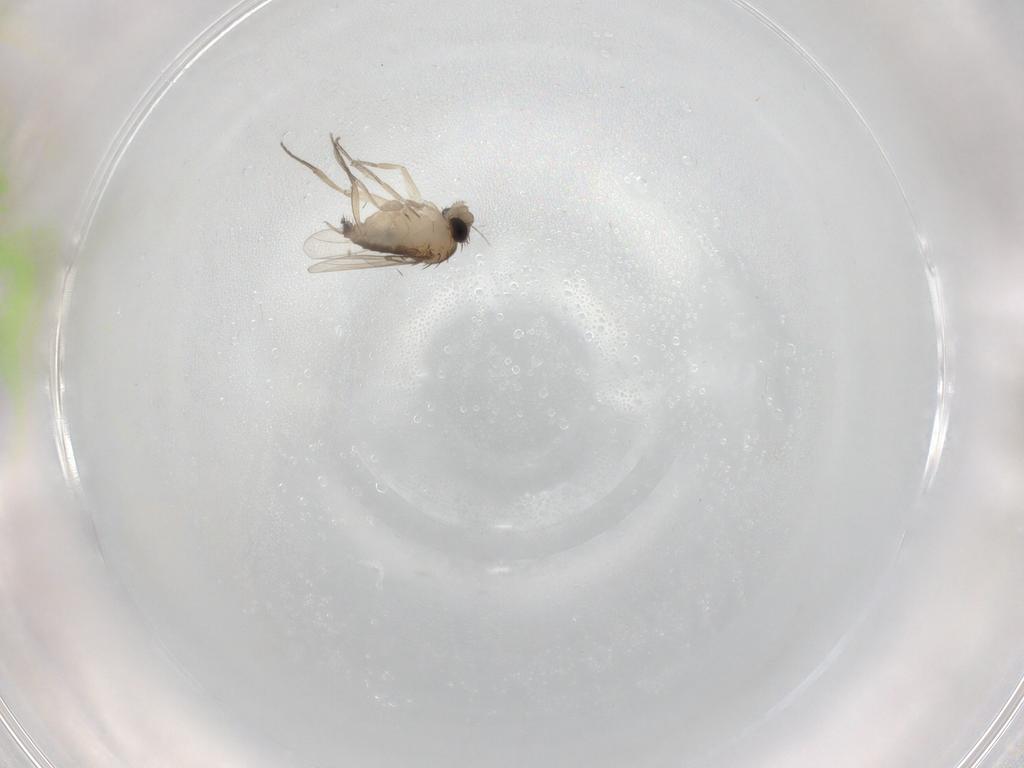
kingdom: Animalia
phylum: Arthropoda
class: Insecta
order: Diptera
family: Phoridae
